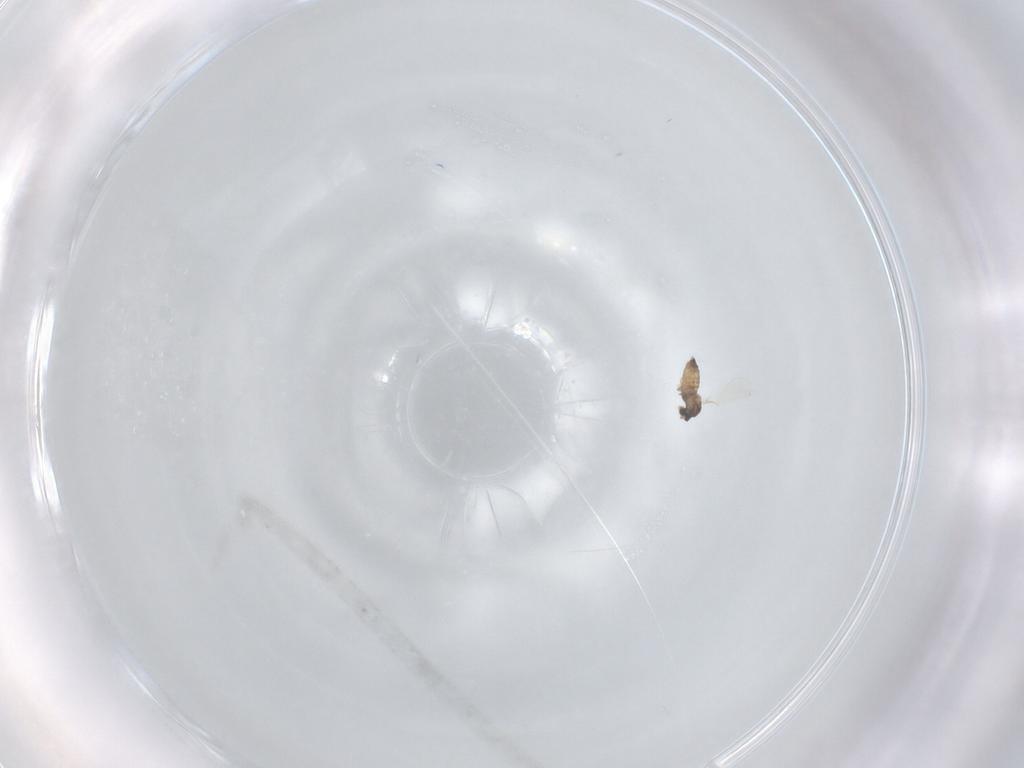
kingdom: Animalia
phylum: Arthropoda
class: Insecta
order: Diptera
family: Cecidomyiidae
